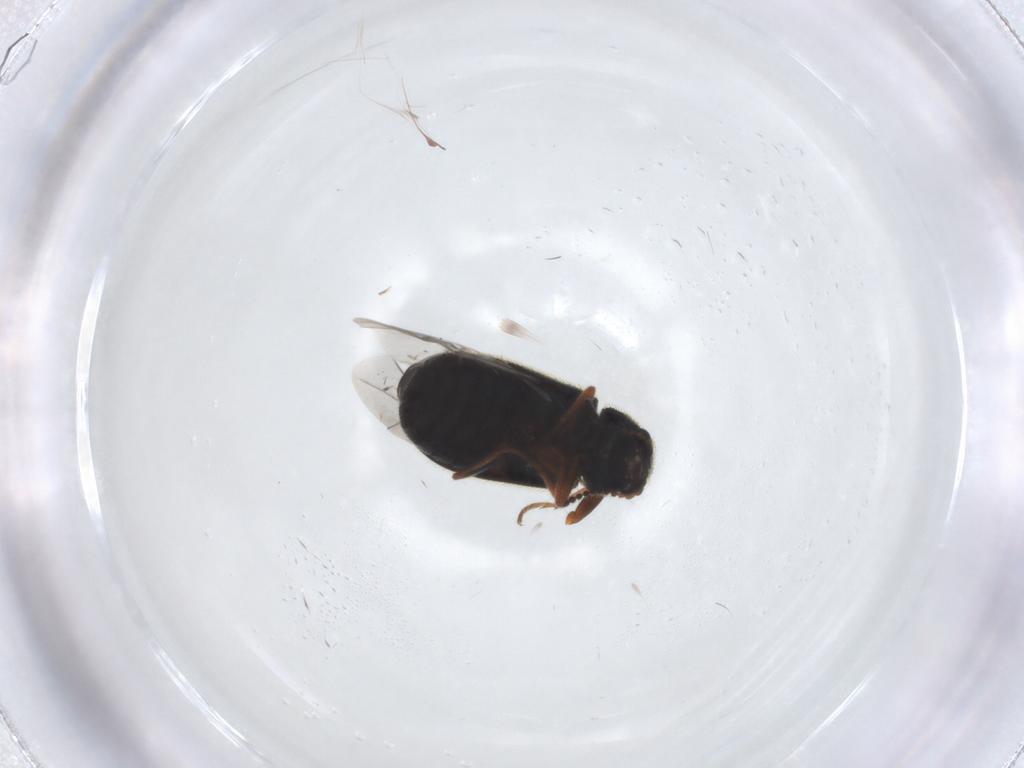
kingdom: Animalia
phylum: Arthropoda
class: Insecta
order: Coleoptera
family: Melyridae
